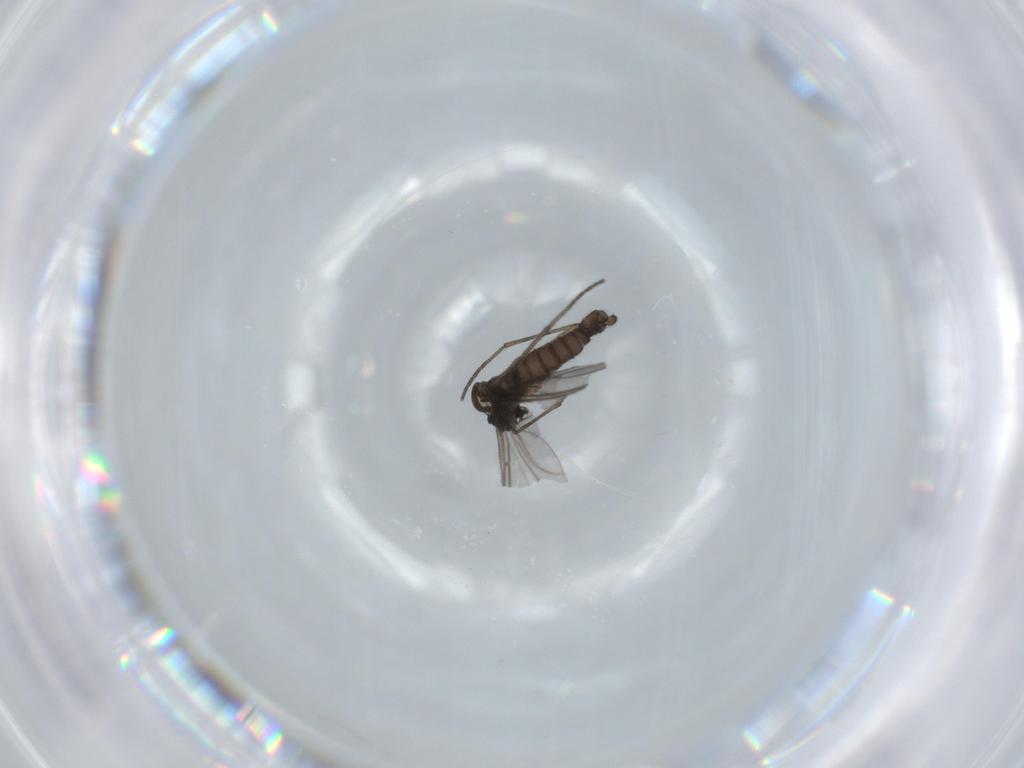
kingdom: Animalia
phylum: Arthropoda
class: Insecta
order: Diptera
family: Sciaridae
